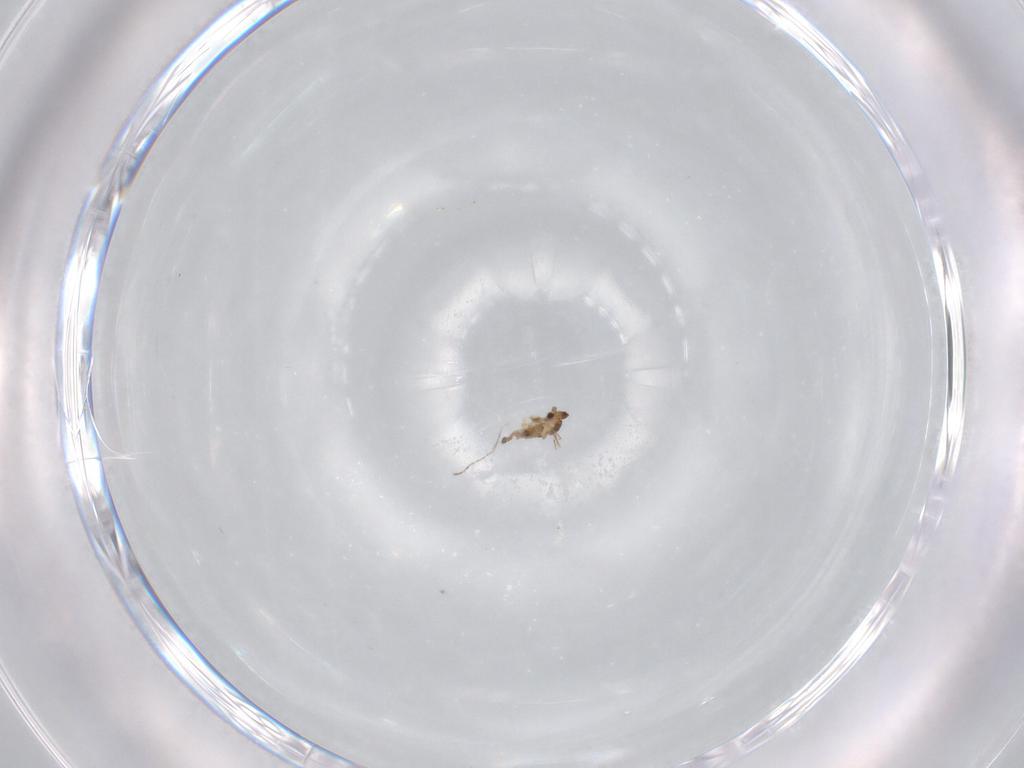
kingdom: Animalia
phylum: Arthropoda
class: Insecta
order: Diptera
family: Cecidomyiidae
